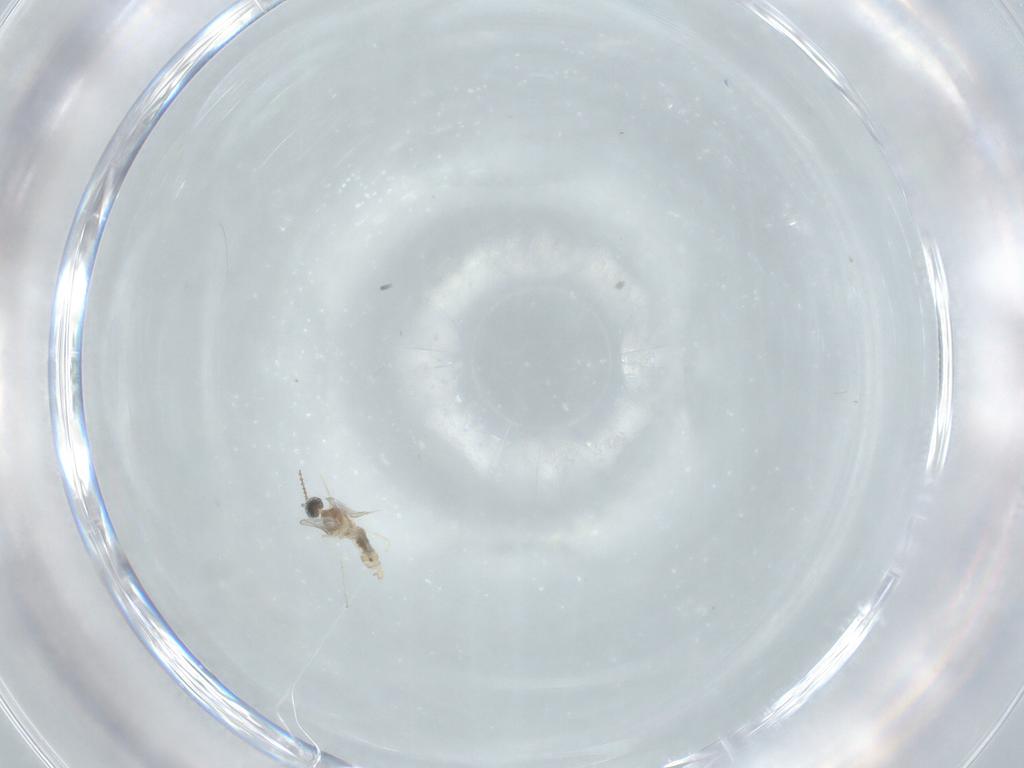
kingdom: Animalia
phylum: Arthropoda
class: Insecta
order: Diptera
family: Cecidomyiidae
